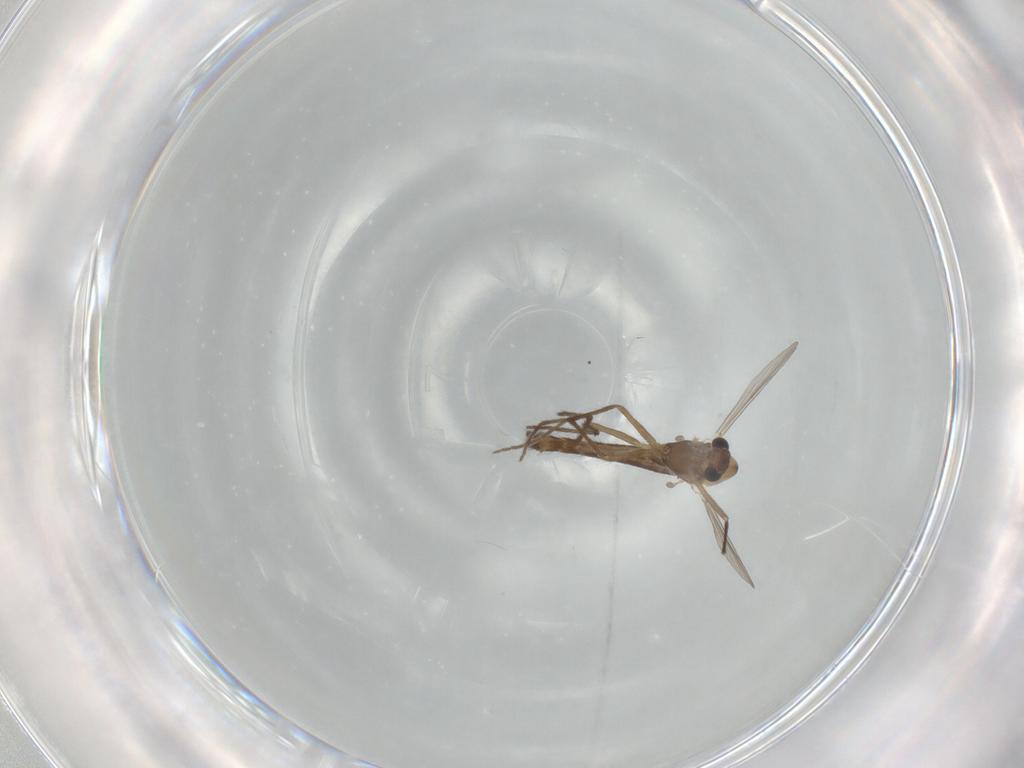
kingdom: Animalia
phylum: Arthropoda
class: Insecta
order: Diptera
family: Chironomidae
